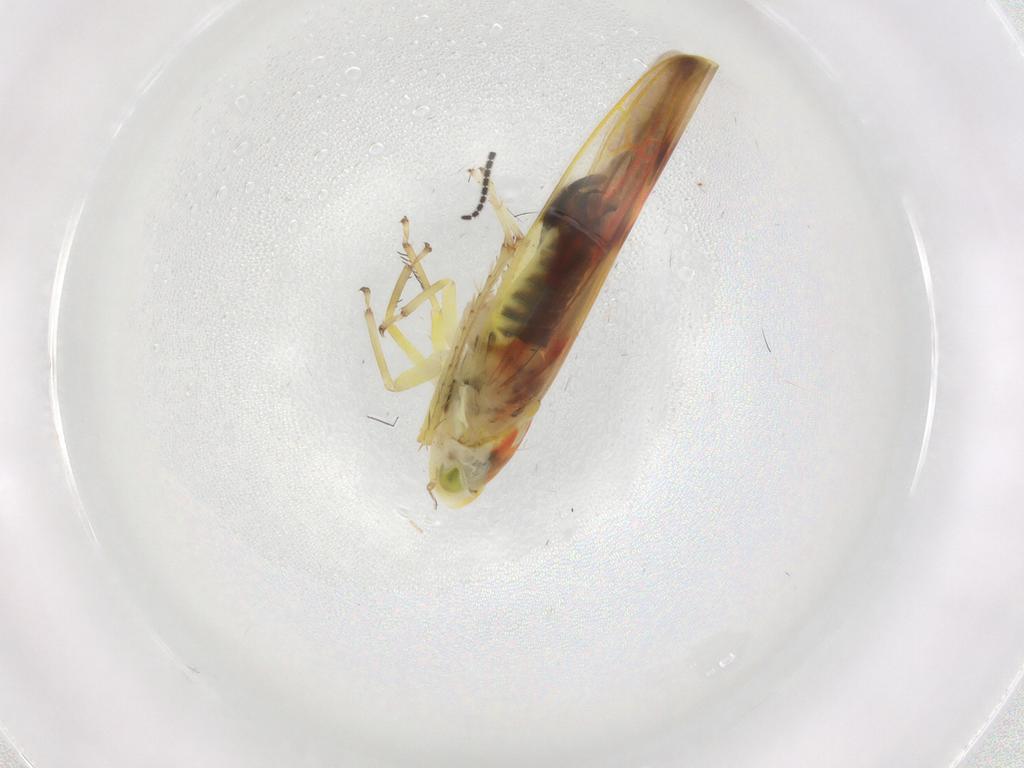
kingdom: Animalia
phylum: Arthropoda
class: Insecta
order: Hemiptera
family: Cicadellidae
